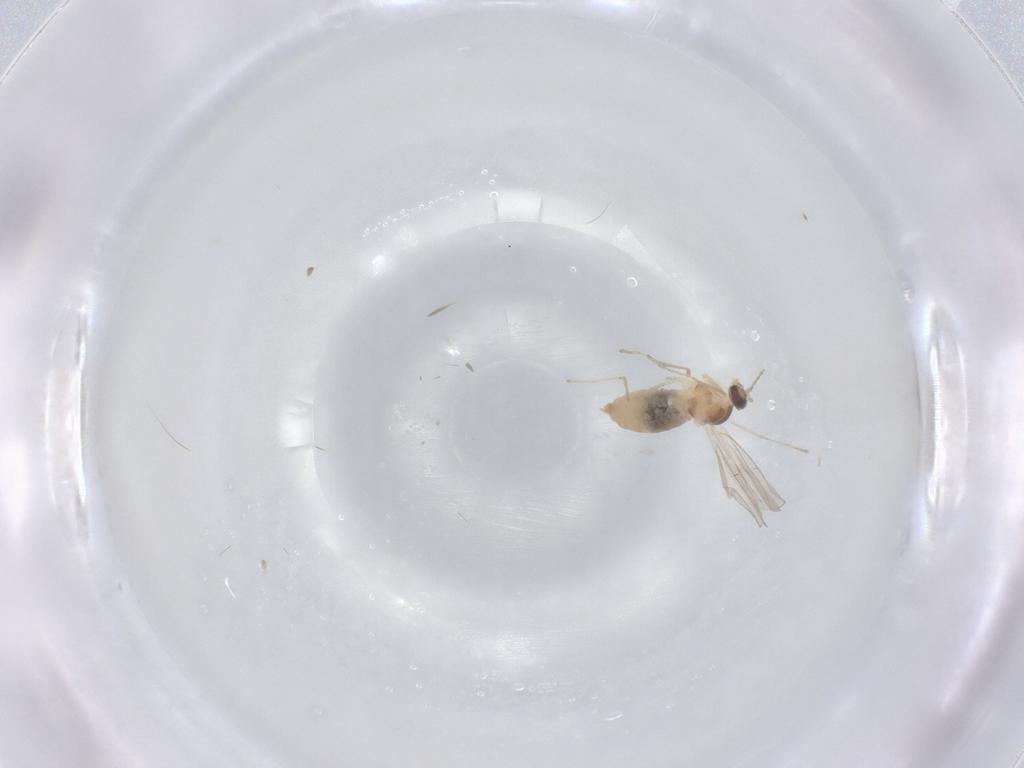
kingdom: Animalia
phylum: Arthropoda
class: Insecta
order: Diptera
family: Cecidomyiidae
